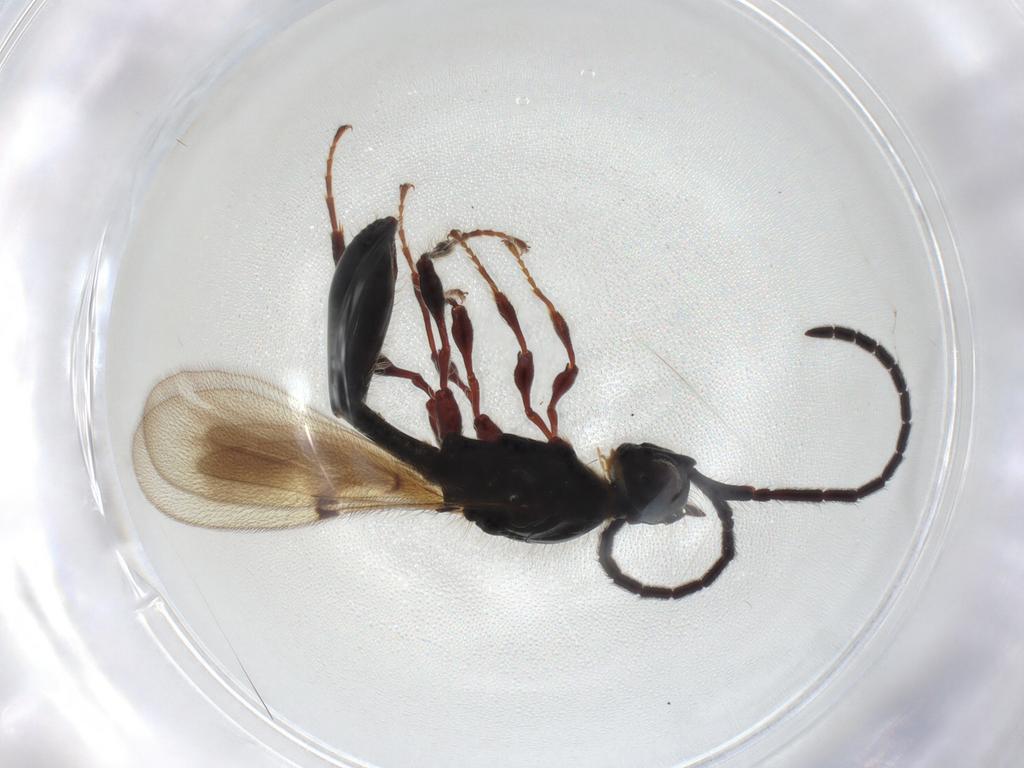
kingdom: Animalia
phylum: Arthropoda
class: Insecta
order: Hymenoptera
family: Diapriidae
